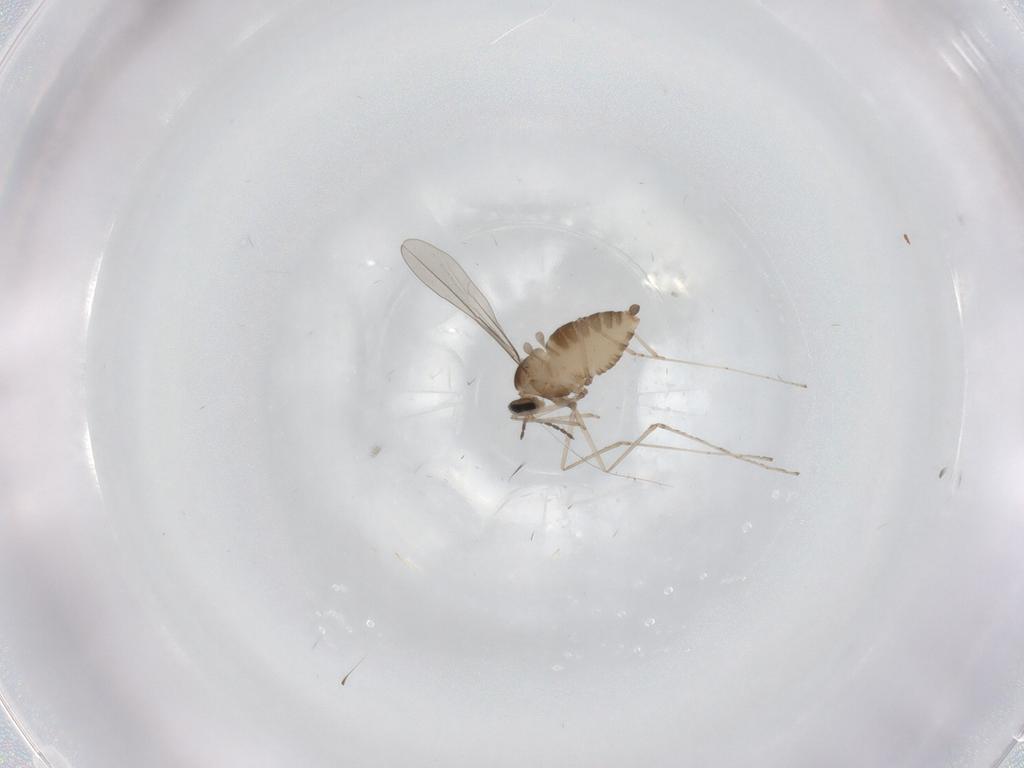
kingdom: Animalia
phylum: Arthropoda
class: Insecta
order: Diptera
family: Cecidomyiidae
